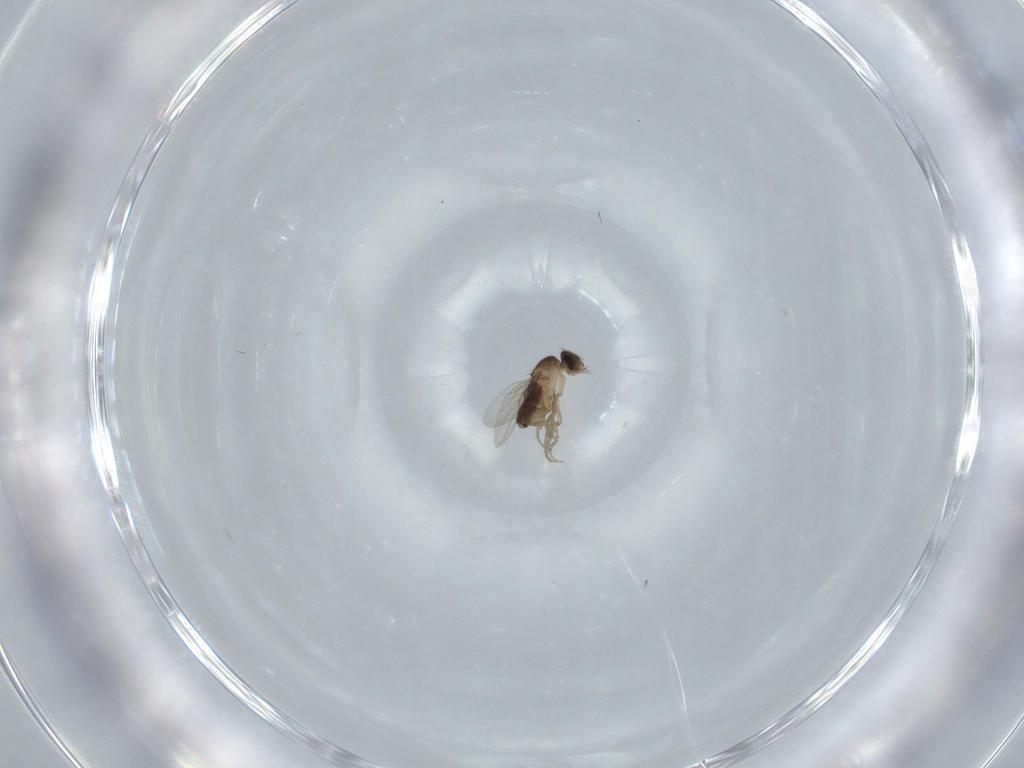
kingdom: Animalia
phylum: Arthropoda
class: Insecta
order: Diptera
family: Phoridae
